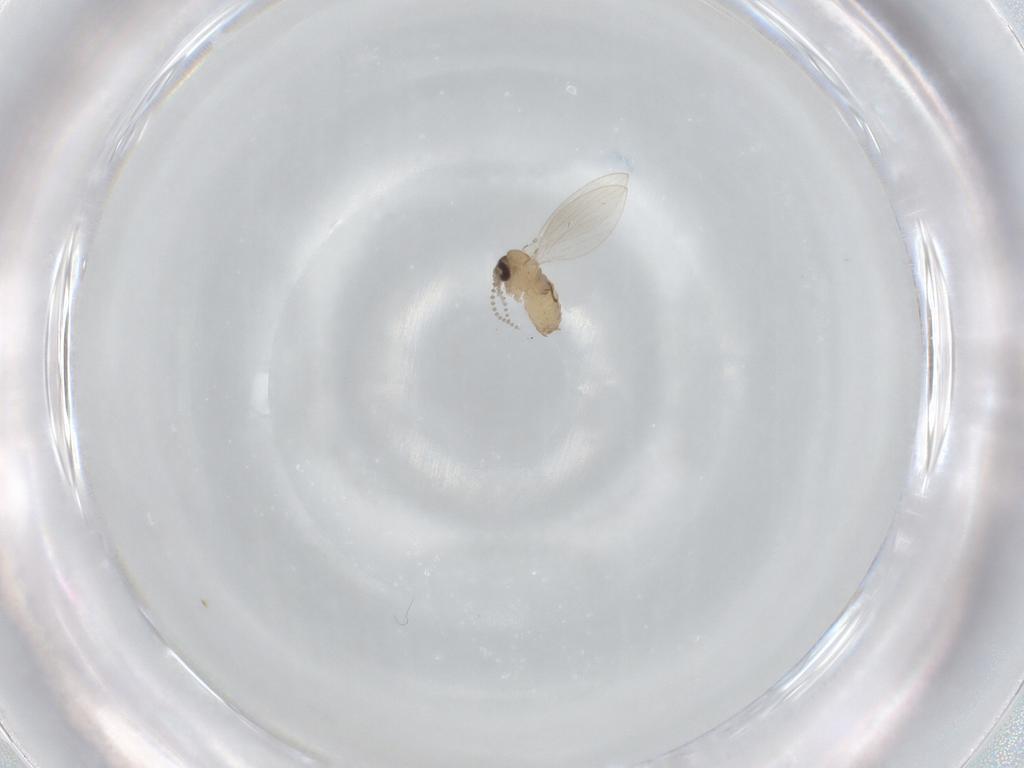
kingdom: Animalia
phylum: Arthropoda
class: Insecta
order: Diptera
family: Psychodidae
